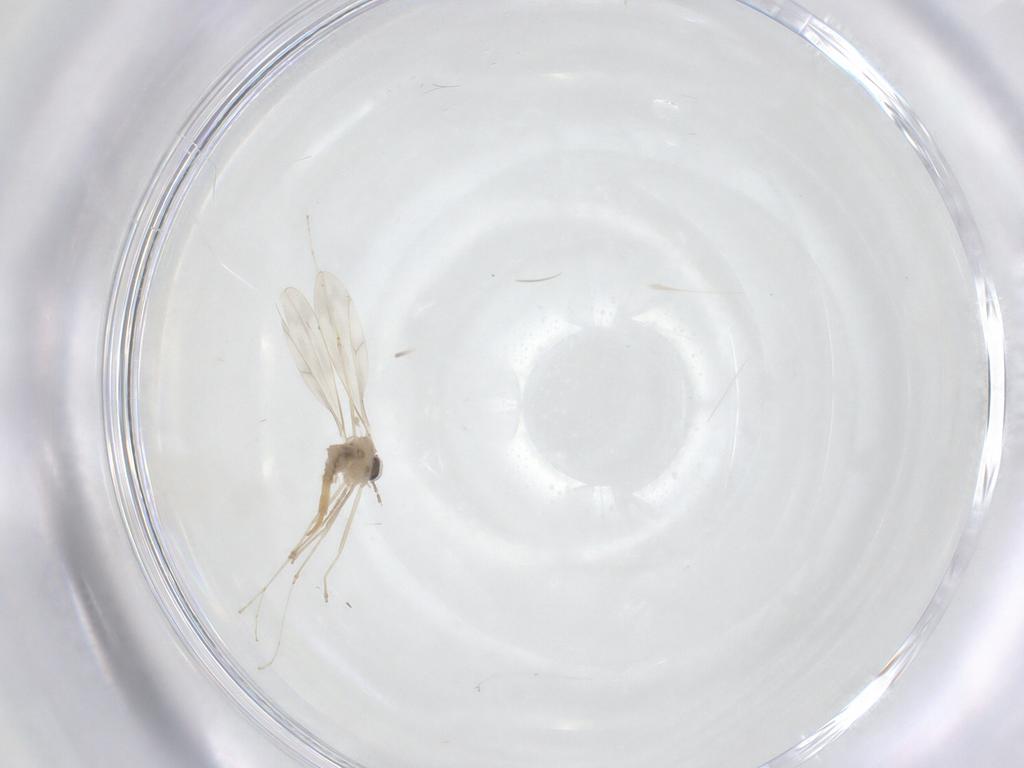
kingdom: Animalia
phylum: Arthropoda
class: Insecta
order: Diptera
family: Cecidomyiidae
